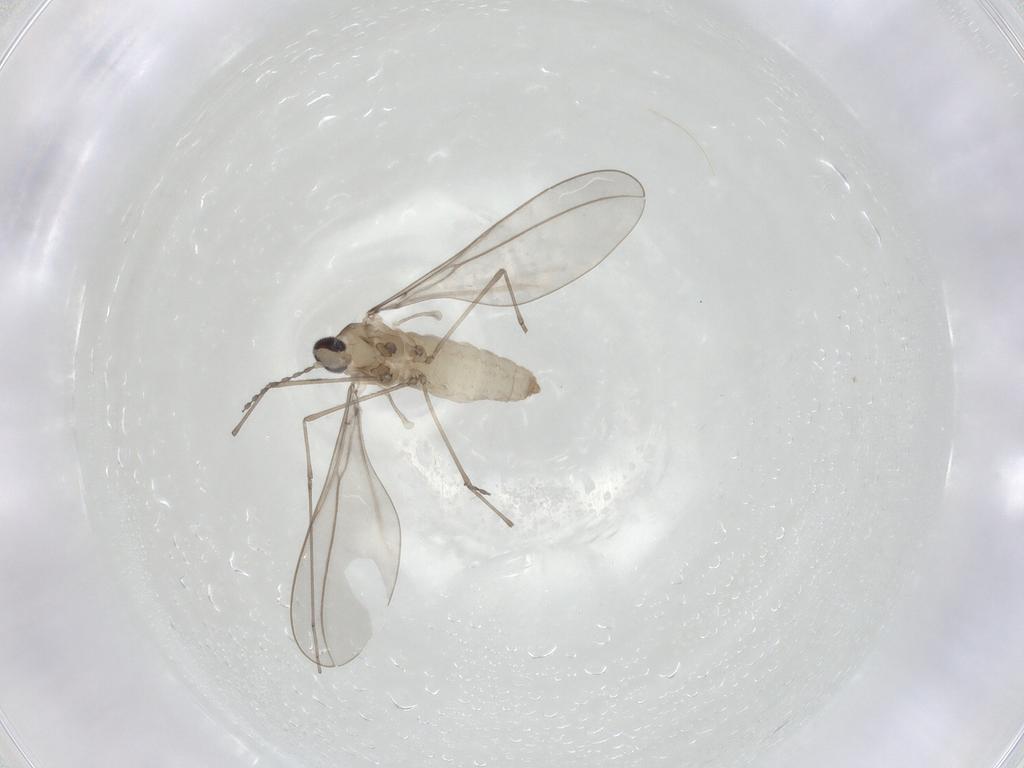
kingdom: Animalia
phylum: Arthropoda
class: Insecta
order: Diptera
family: Cecidomyiidae
